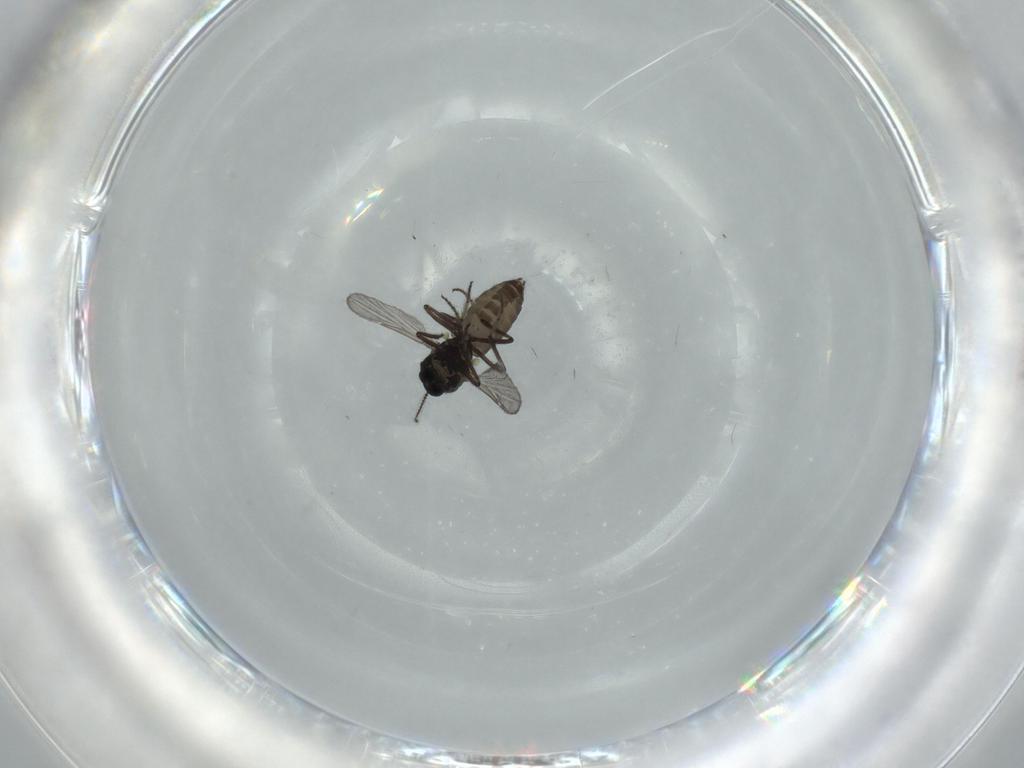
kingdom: Animalia
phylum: Arthropoda
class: Insecta
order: Diptera
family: Ceratopogonidae
